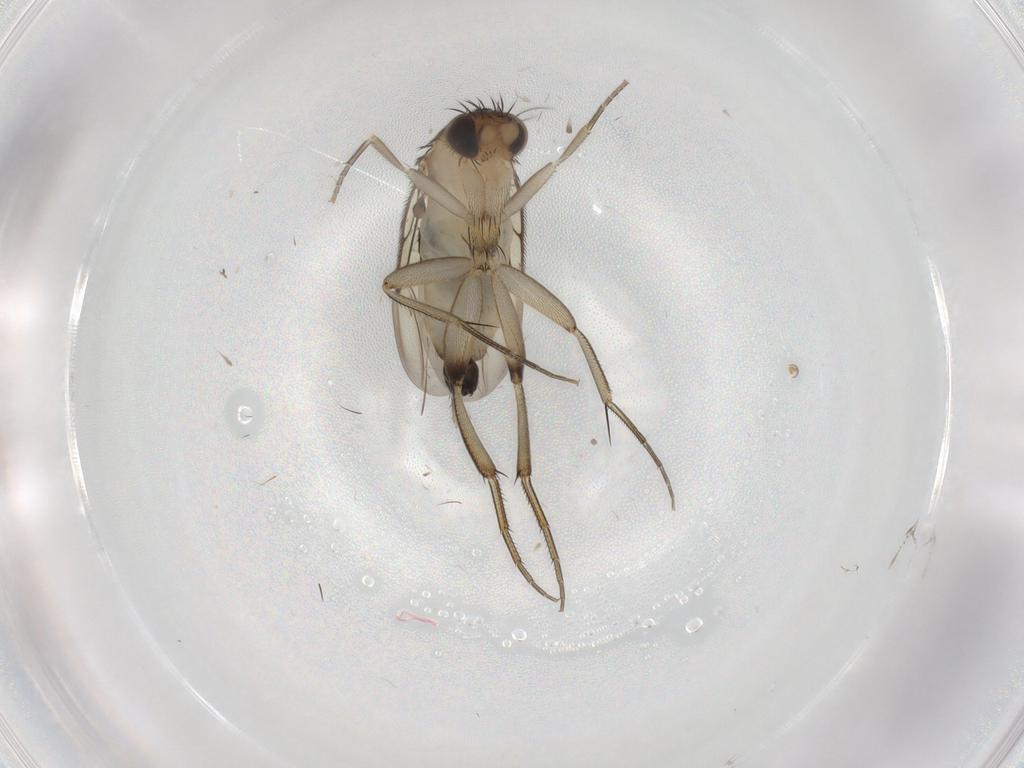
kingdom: Animalia
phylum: Arthropoda
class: Insecta
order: Diptera
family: Phoridae
